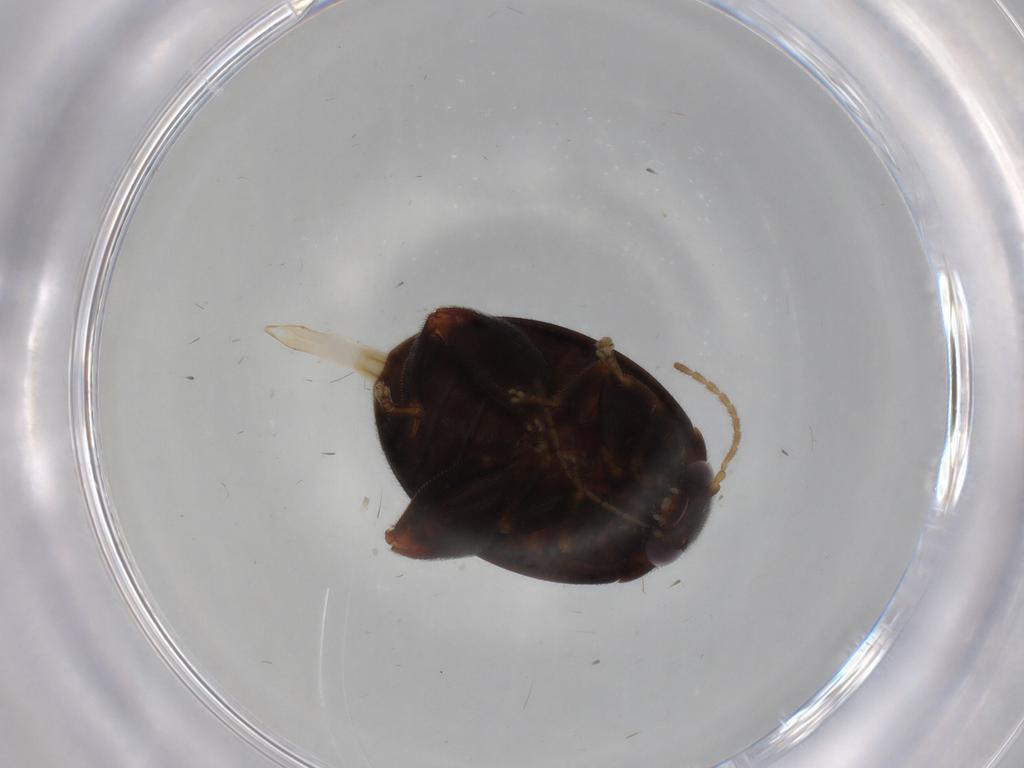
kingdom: Animalia
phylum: Arthropoda
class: Insecta
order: Coleoptera
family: Scirtidae
